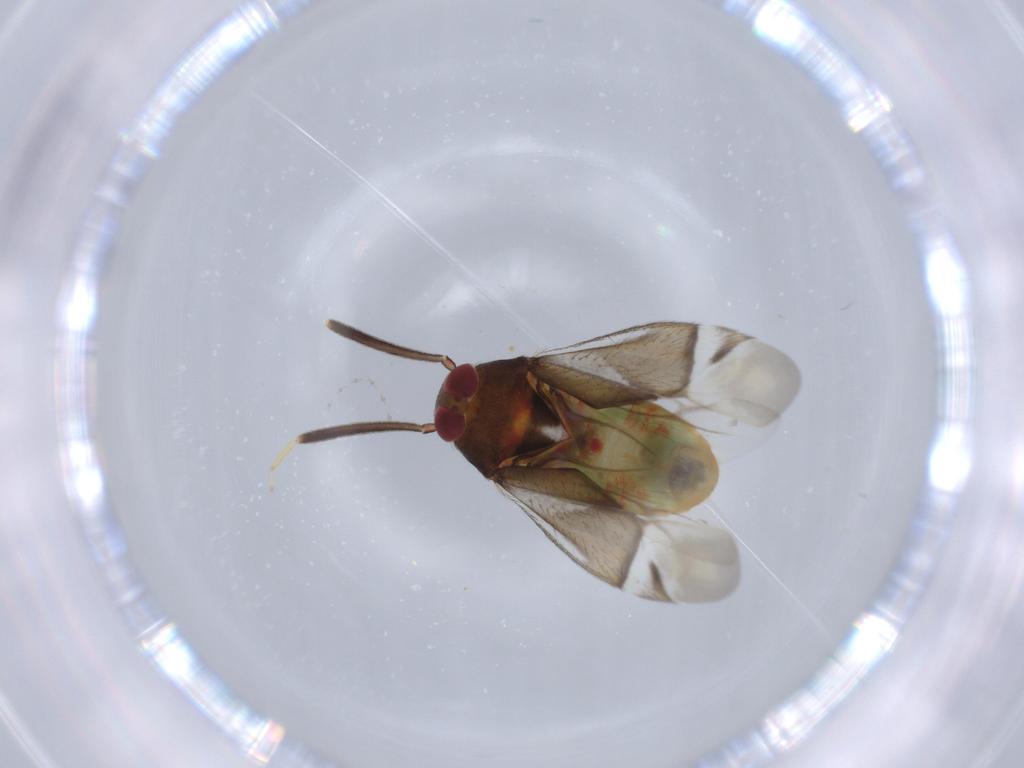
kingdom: Animalia
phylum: Arthropoda
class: Insecta
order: Hemiptera
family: Miridae
